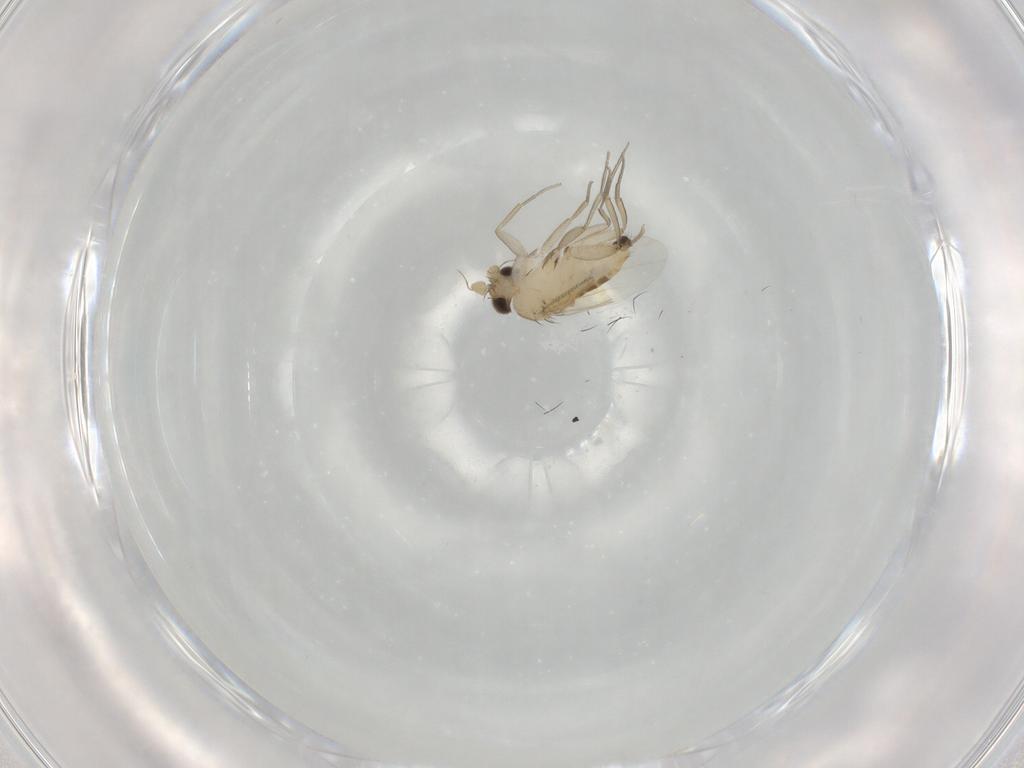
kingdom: Animalia
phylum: Arthropoda
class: Insecta
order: Diptera
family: Phoridae
